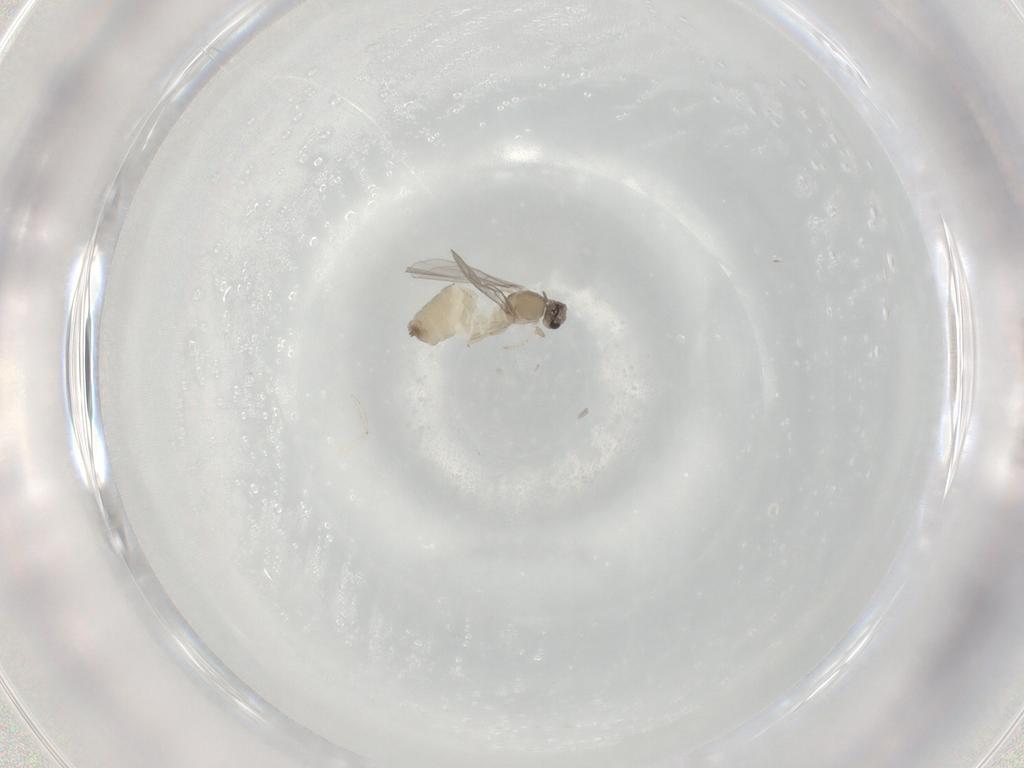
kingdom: Animalia
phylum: Arthropoda
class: Insecta
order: Diptera
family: Cecidomyiidae
